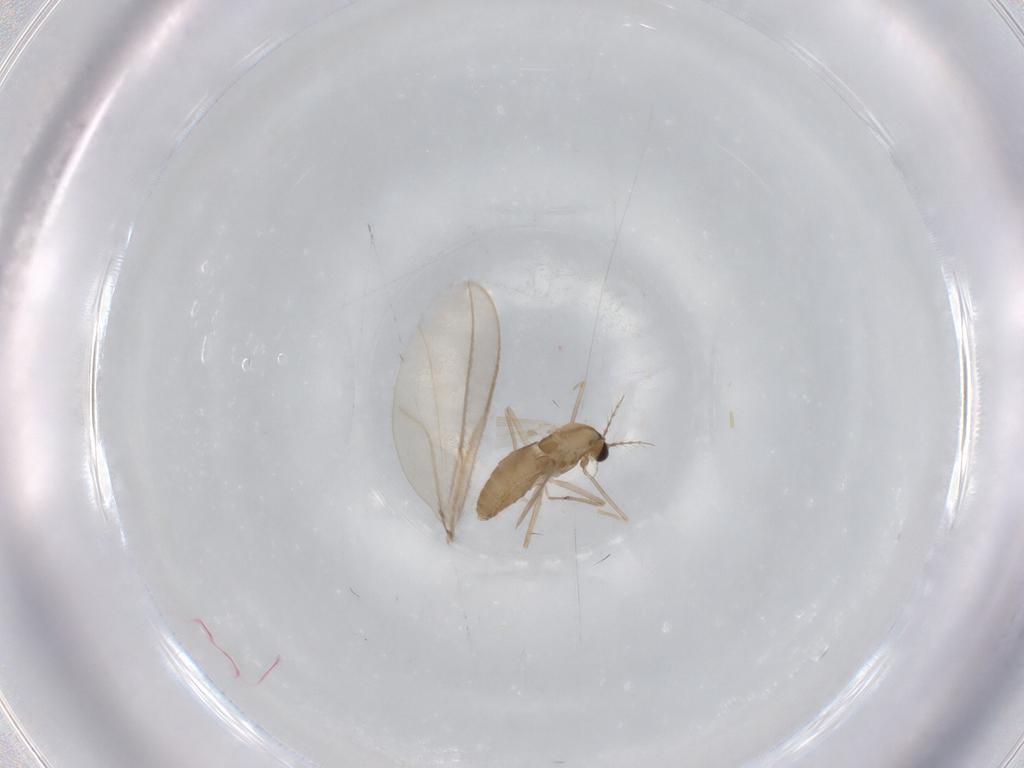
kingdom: Animalia
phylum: Arthropoda
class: Insecta
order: Diptera
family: Chironomidae
